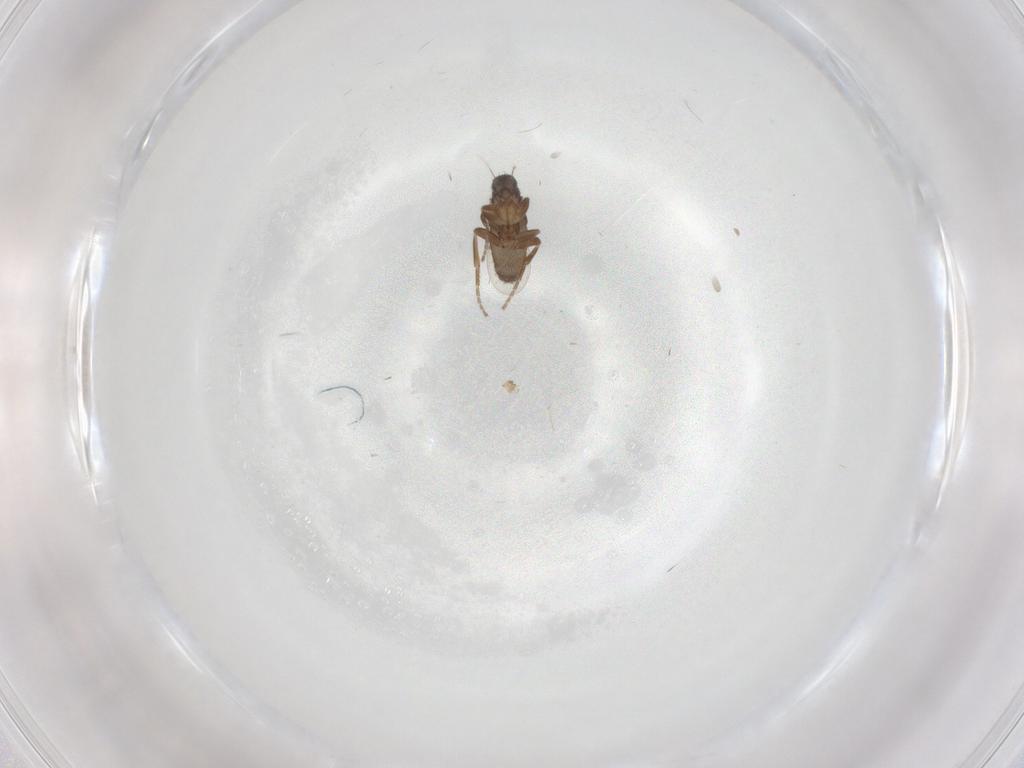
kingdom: Animalia
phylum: Arthropoda
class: Insecta
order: Diptera
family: Phoridae
